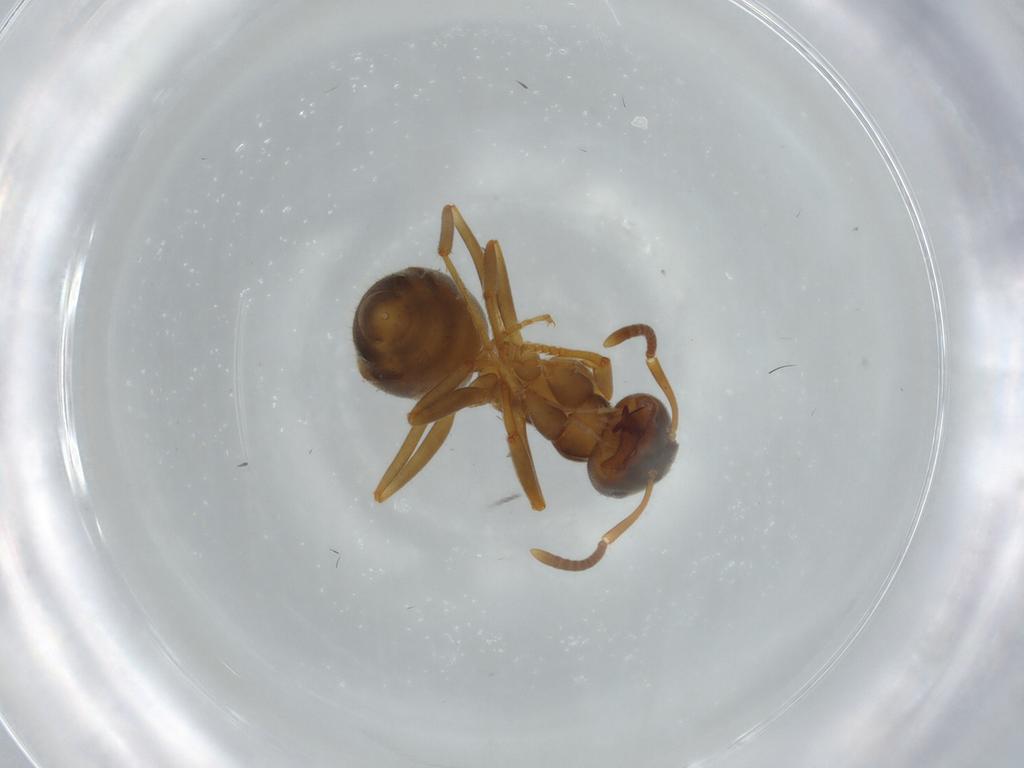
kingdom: Animalia
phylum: Arthropoda
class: Insecta
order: Hymenoptera
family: Formicidae
